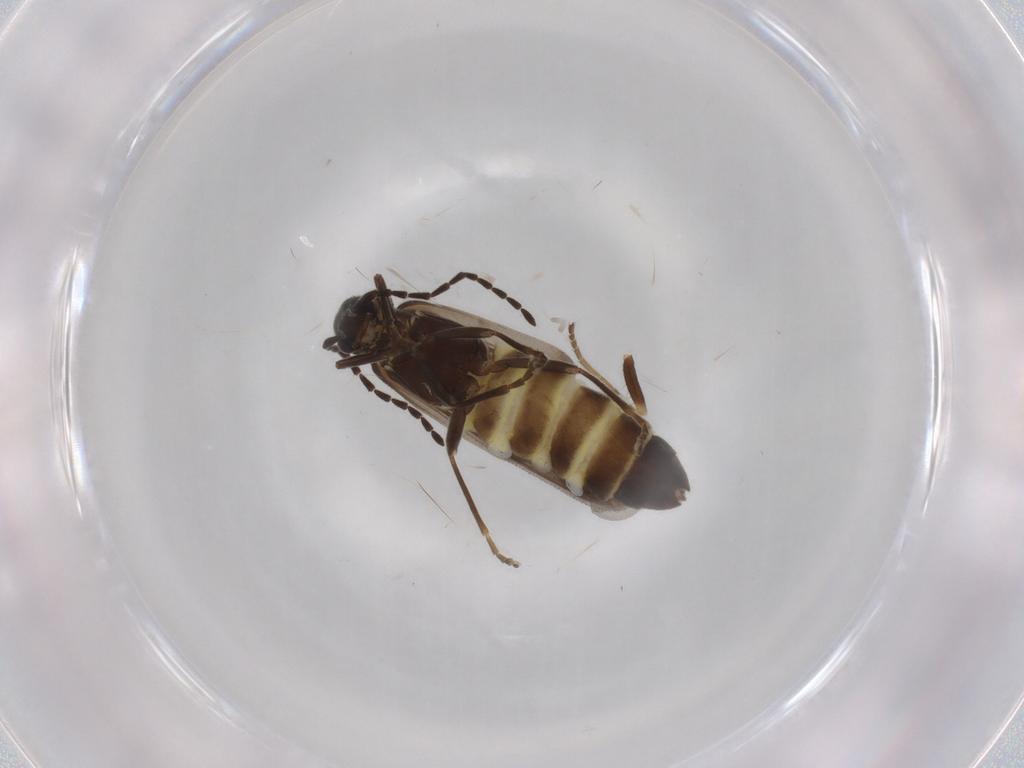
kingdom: Animalia
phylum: Arthropoda
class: Insecta
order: Coleoptera
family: Cantharidae
